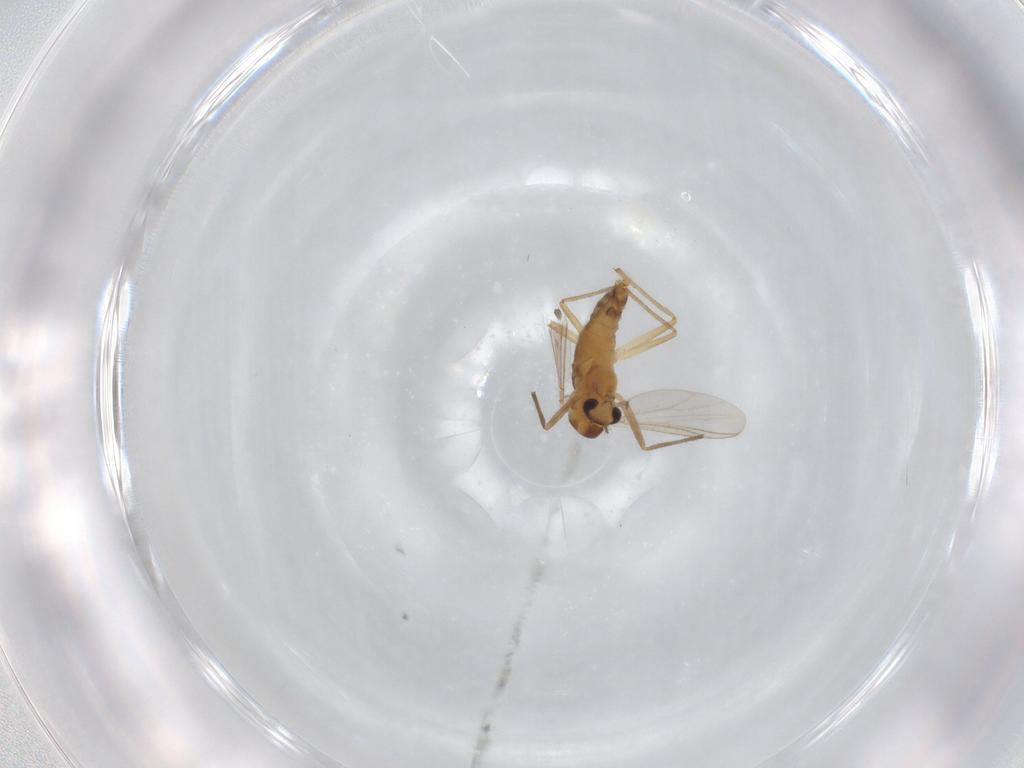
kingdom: Animalia
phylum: Arthropoda
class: Insecta
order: Diptera
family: Chironomidae
